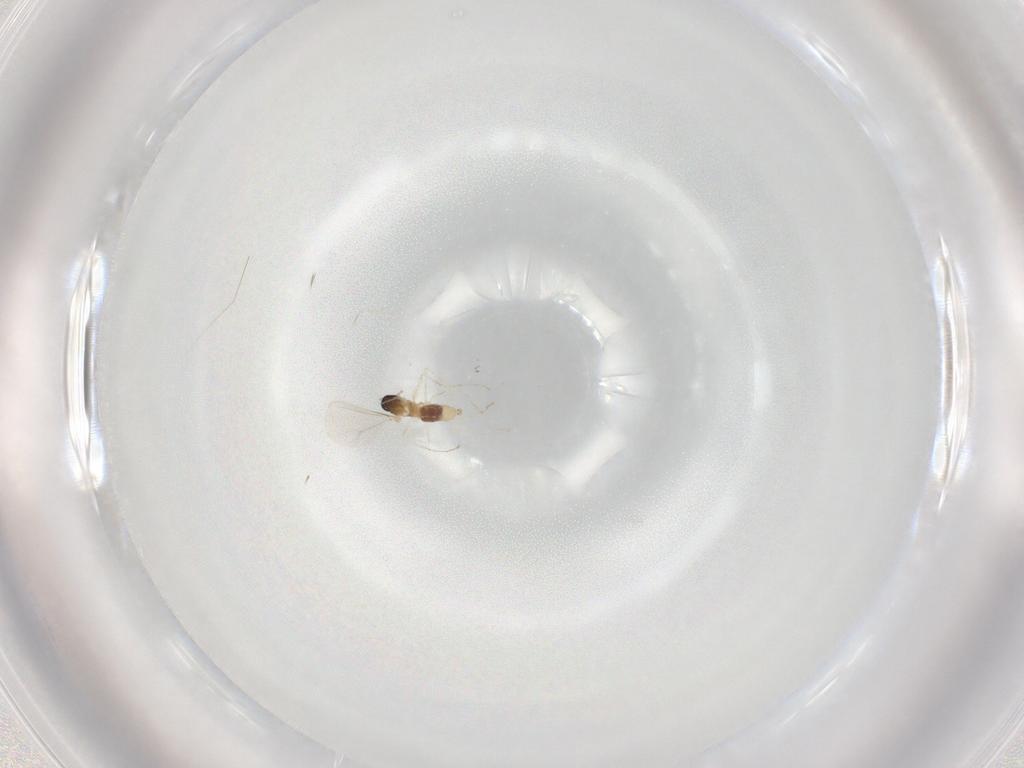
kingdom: Animalia
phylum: Arthropoda
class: Insecta
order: Diptera
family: Cecidomyiidae
